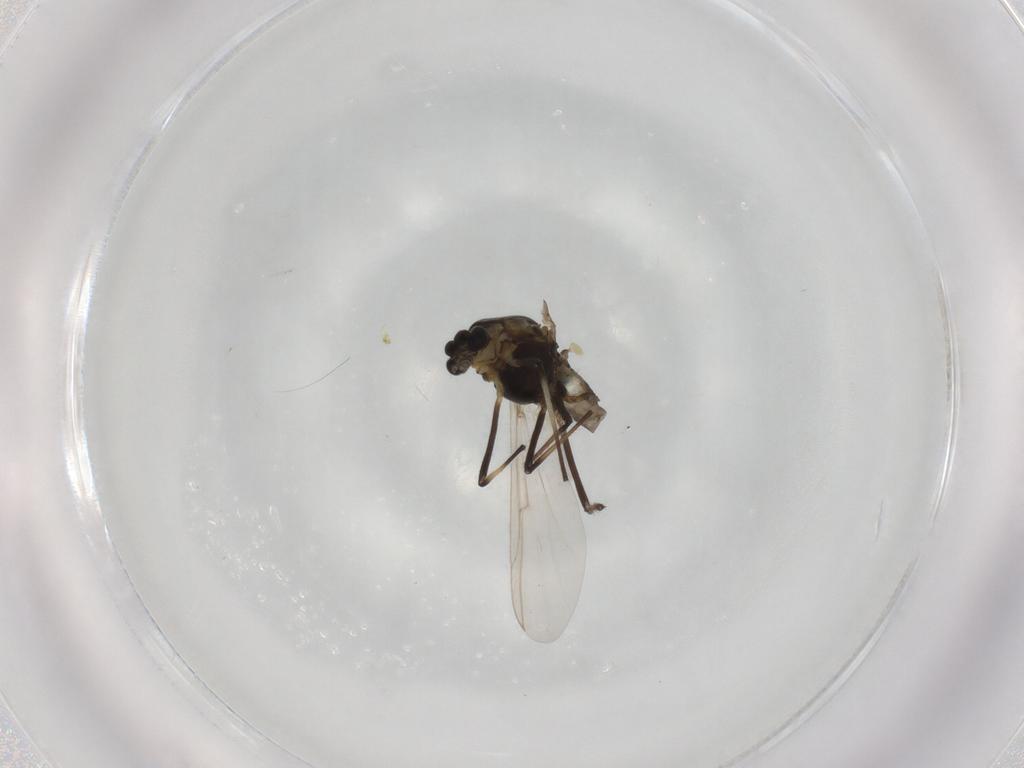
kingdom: Animalia
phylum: Arthropoda
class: Insecta
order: Diptera
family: Chironomidae
